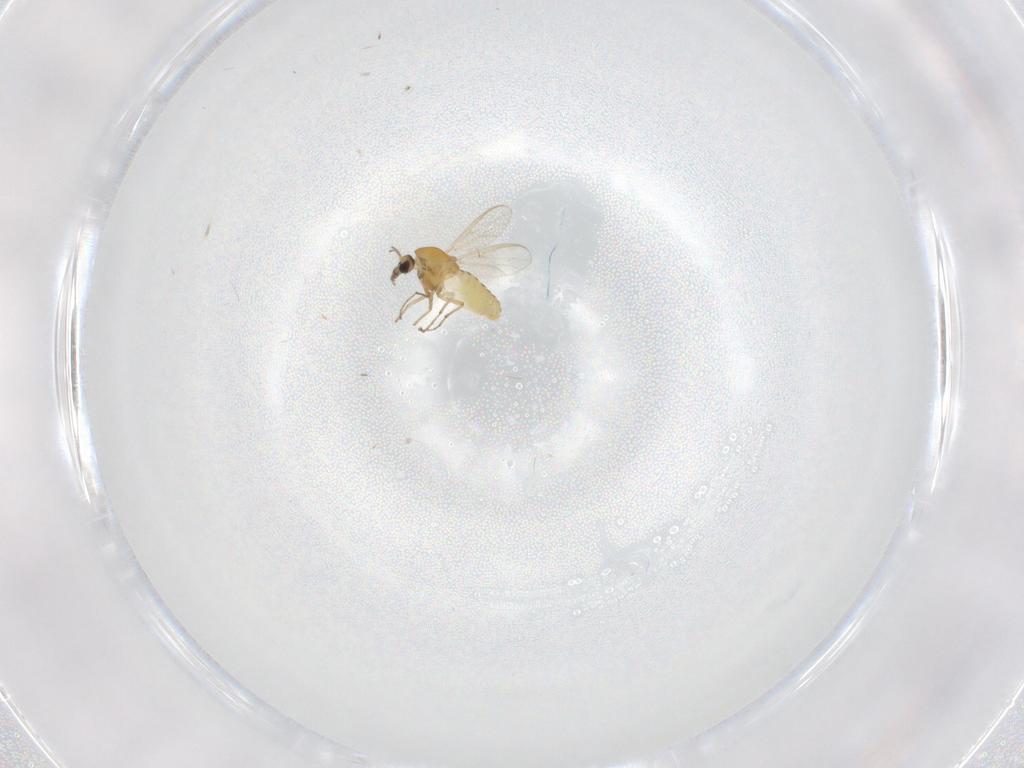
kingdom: Animalia
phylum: Arthropoda
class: Insecta
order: Diptera
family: Chironomidae
